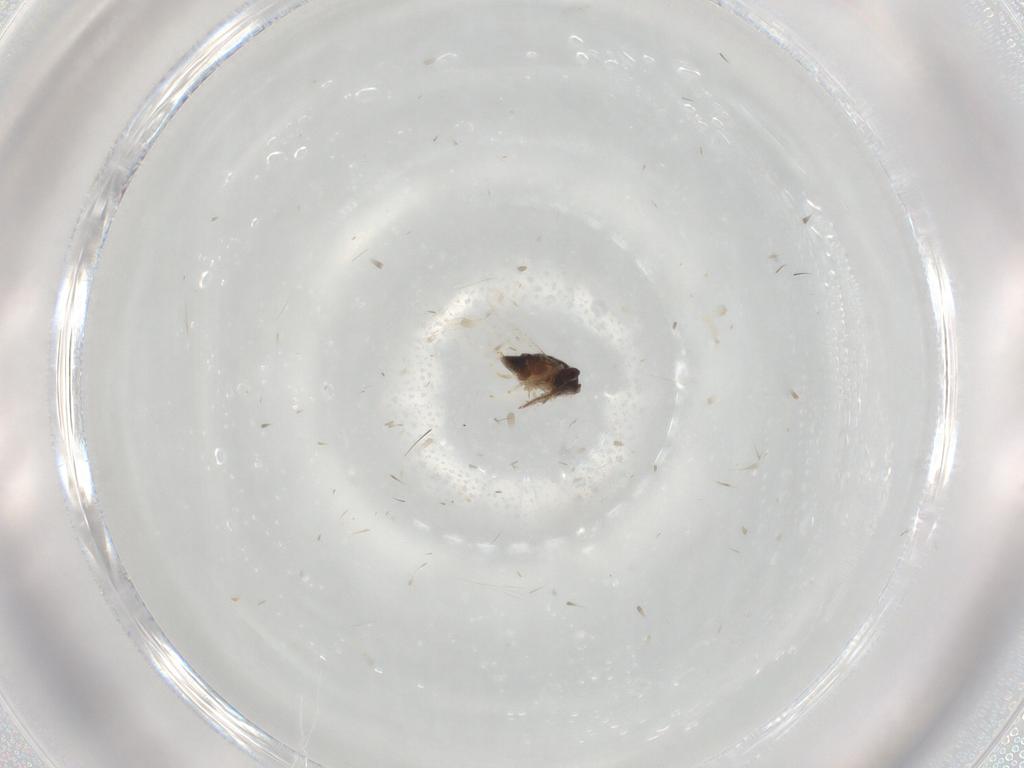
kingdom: Animalia
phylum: Arthropoda
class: Insecta
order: Hymenoptera
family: Encyrtidae
